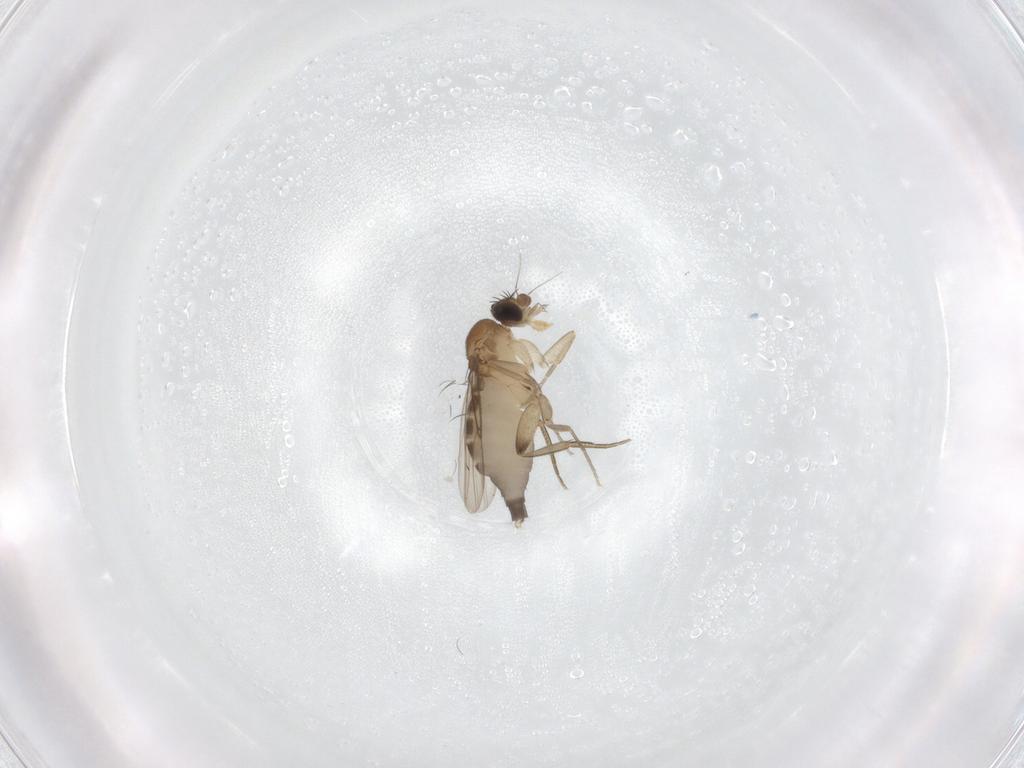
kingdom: Animalia
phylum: Arthropoda
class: Insecta
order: Diptera
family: Phoridae
